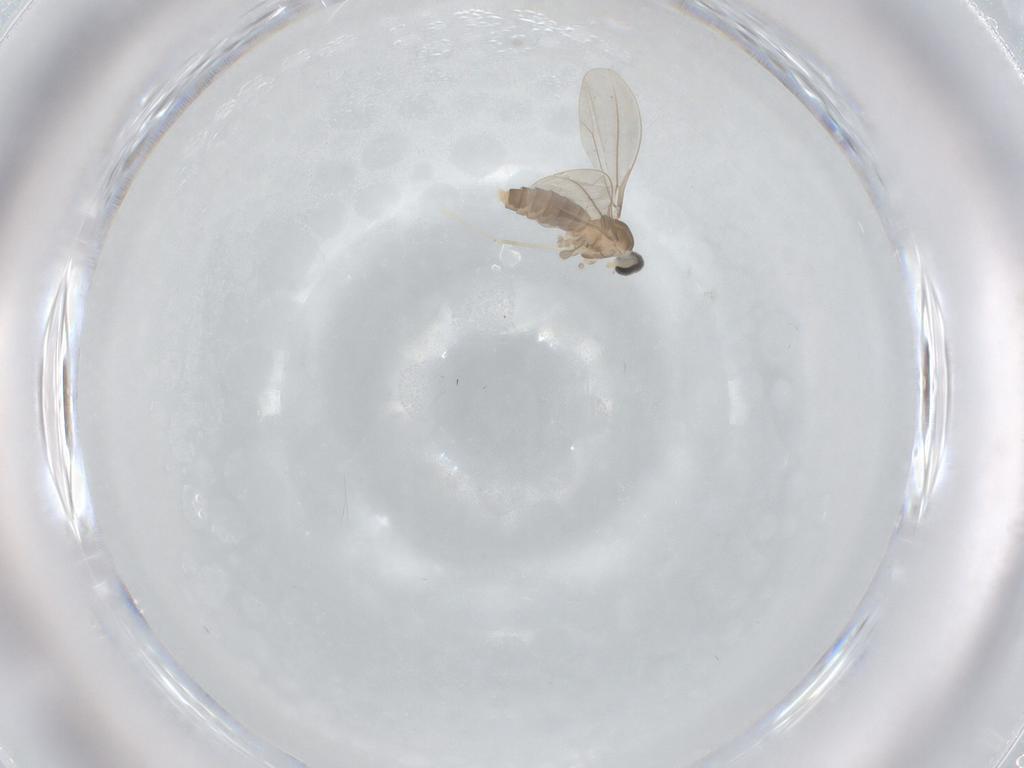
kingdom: Animalia
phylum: Arthropoda
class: Insecta
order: Diptera
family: Cecidomyiidae
